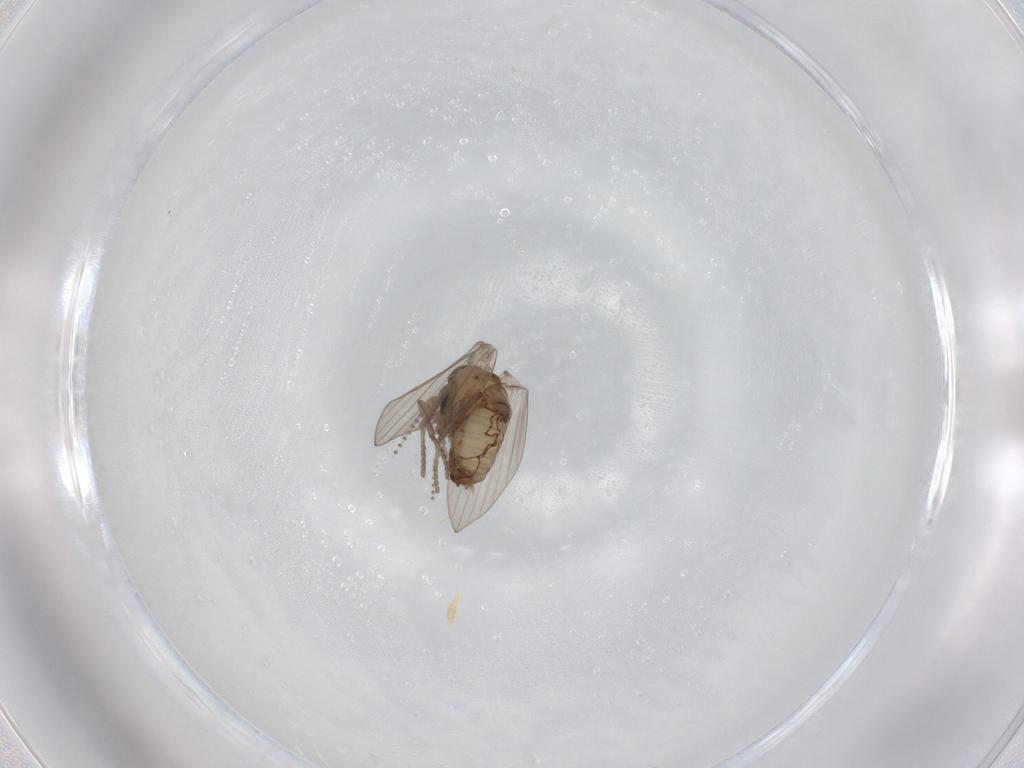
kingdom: Animalia
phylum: Arthropoda
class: Insecta
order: Diptera
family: Psychodidae
